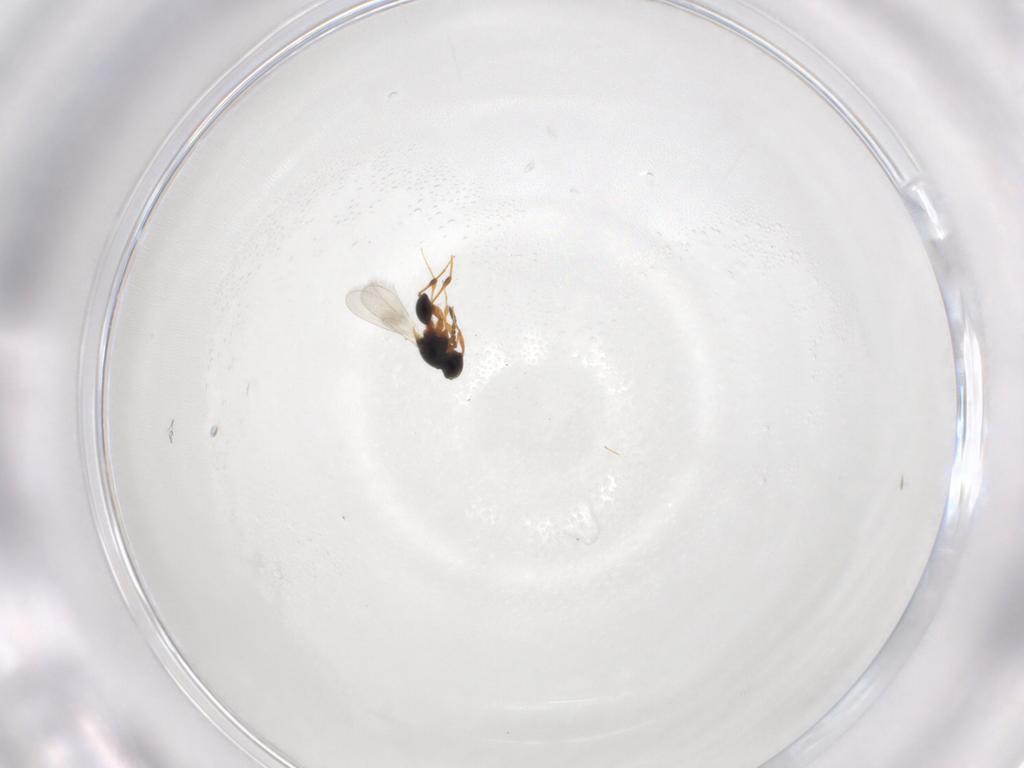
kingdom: Animalia
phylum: Arthropoda
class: Insecta
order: Hymenoptera
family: Platygastridae
